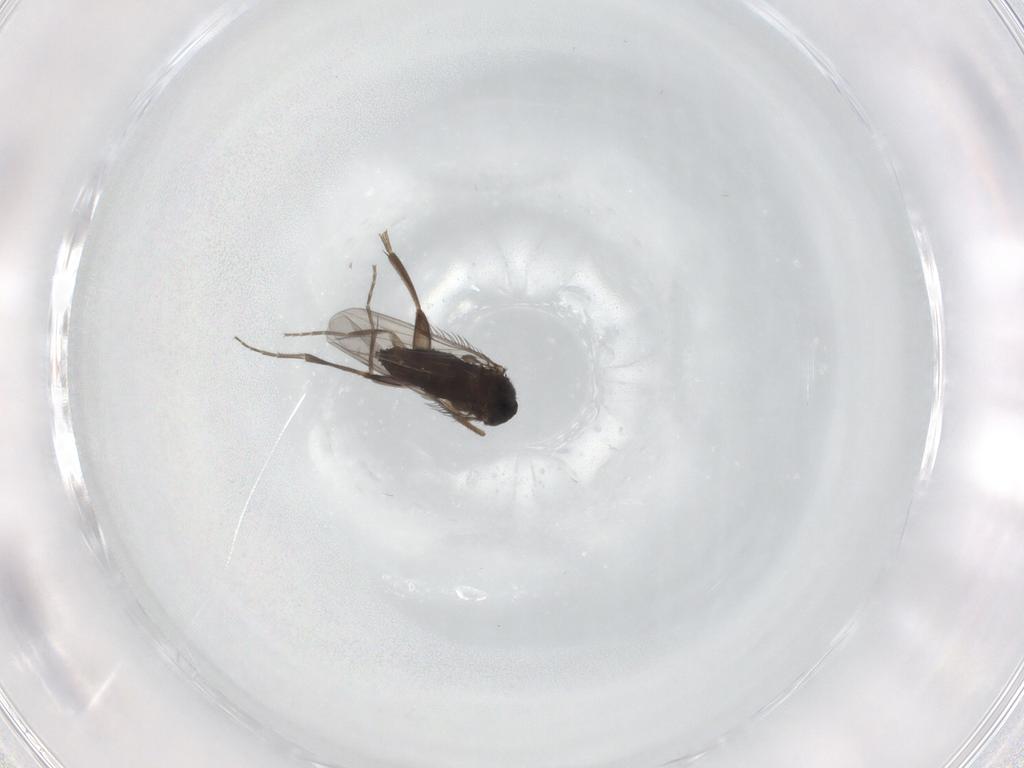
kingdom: Animalia
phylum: Arthropoda
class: Insecta
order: Diptera
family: Phoridae
